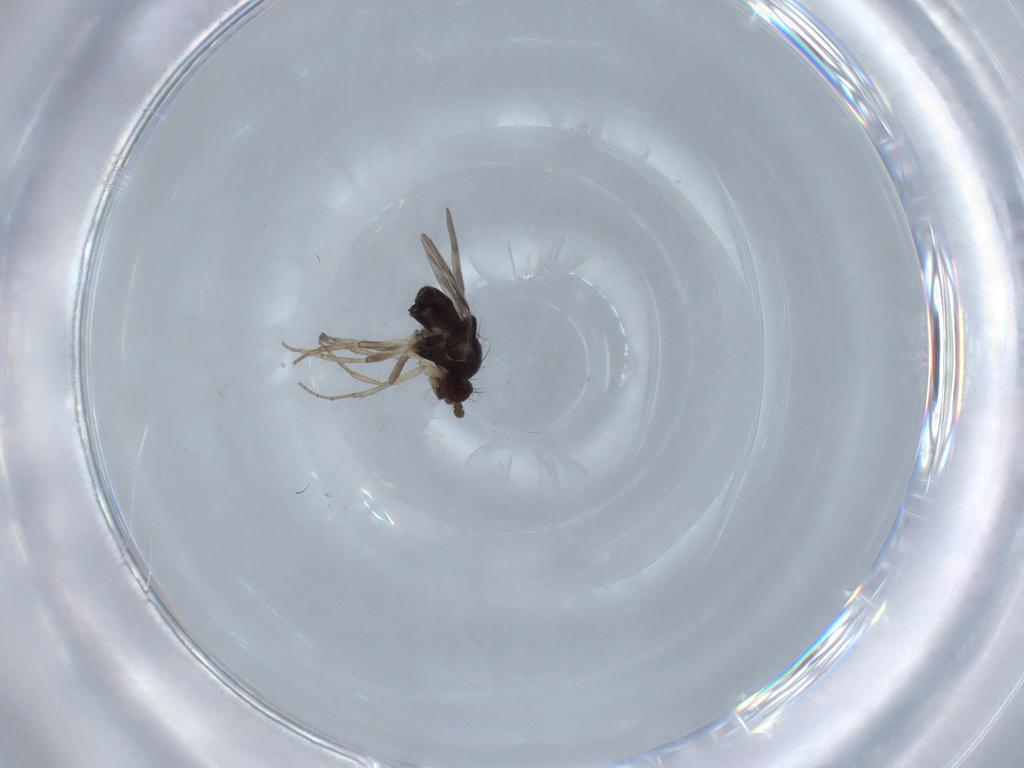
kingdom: Animalia
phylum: Arthropoda
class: Insecta
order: Diptera
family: Sphaeroceridae
